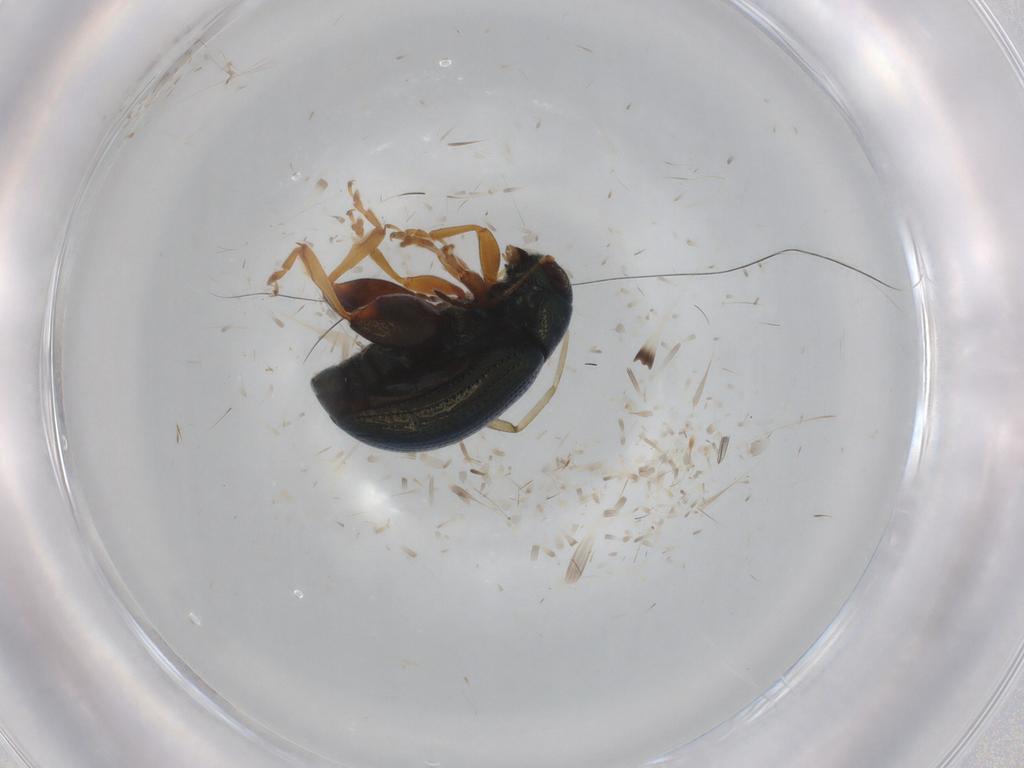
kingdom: Animalia
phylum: Arthropoda
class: Insecta
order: Coleoptera
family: Chrysomelidae
